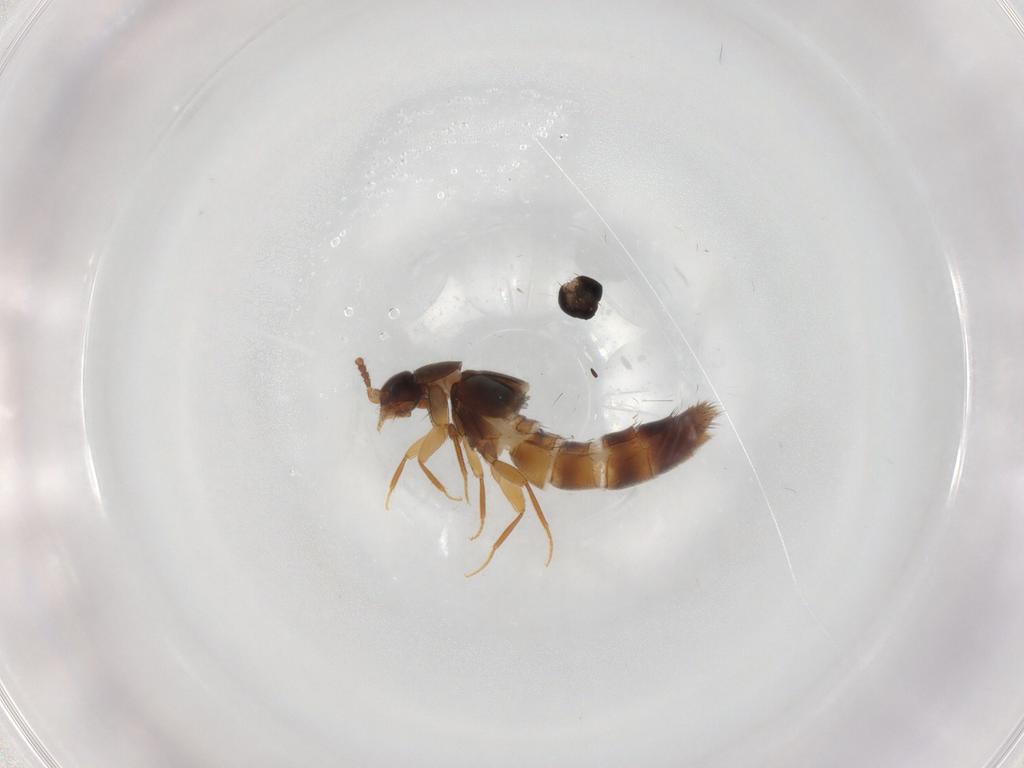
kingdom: Animalia
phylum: Arthropoda
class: Insecta
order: Coleoptera
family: Staphylinidae
